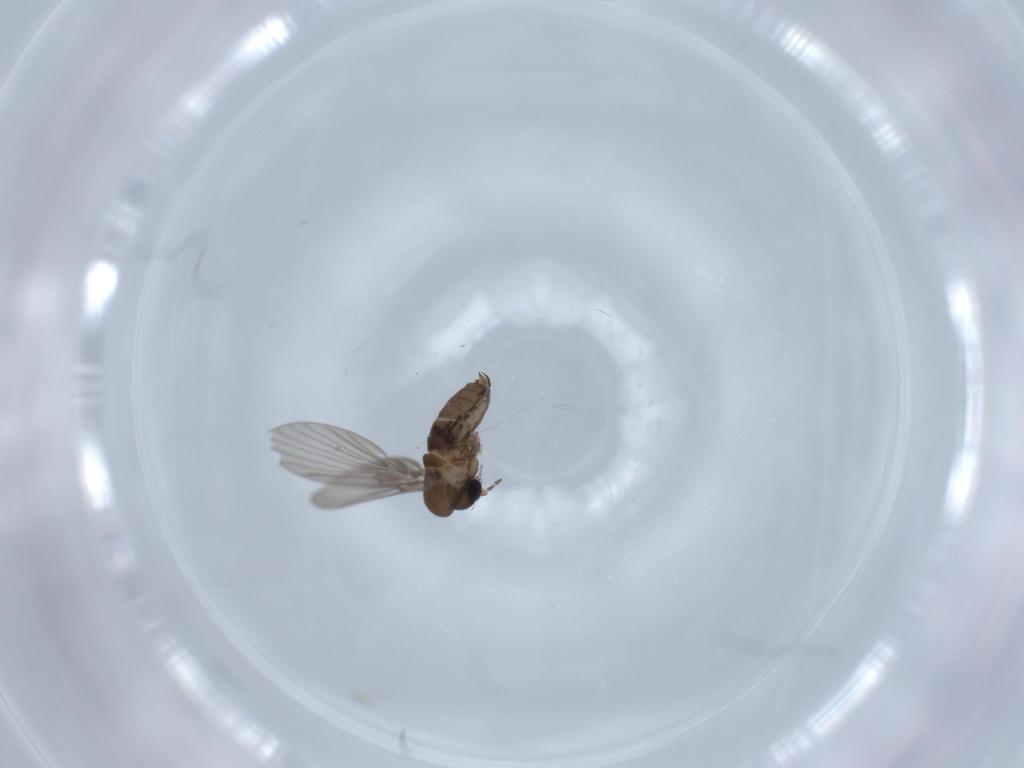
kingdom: Animalia
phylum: Arthropoda
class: Insecta
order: Diptera
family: Psychodidae
